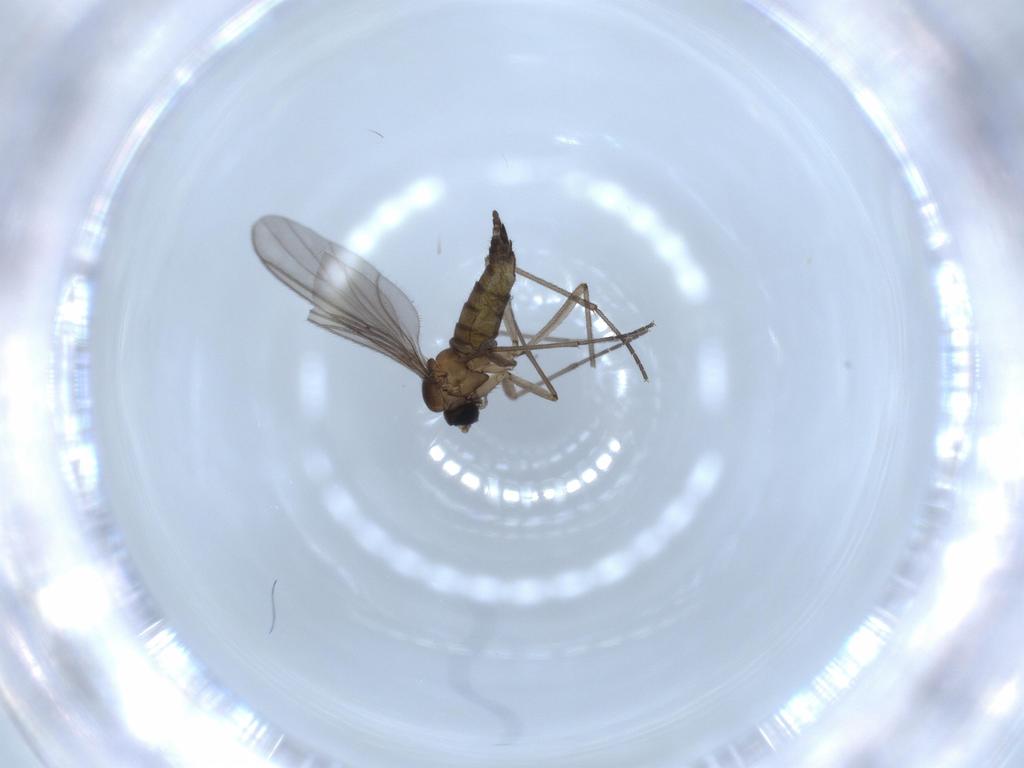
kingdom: Animalia
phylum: Arthropoda
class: Insecta
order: Diptera
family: Sciaridae
